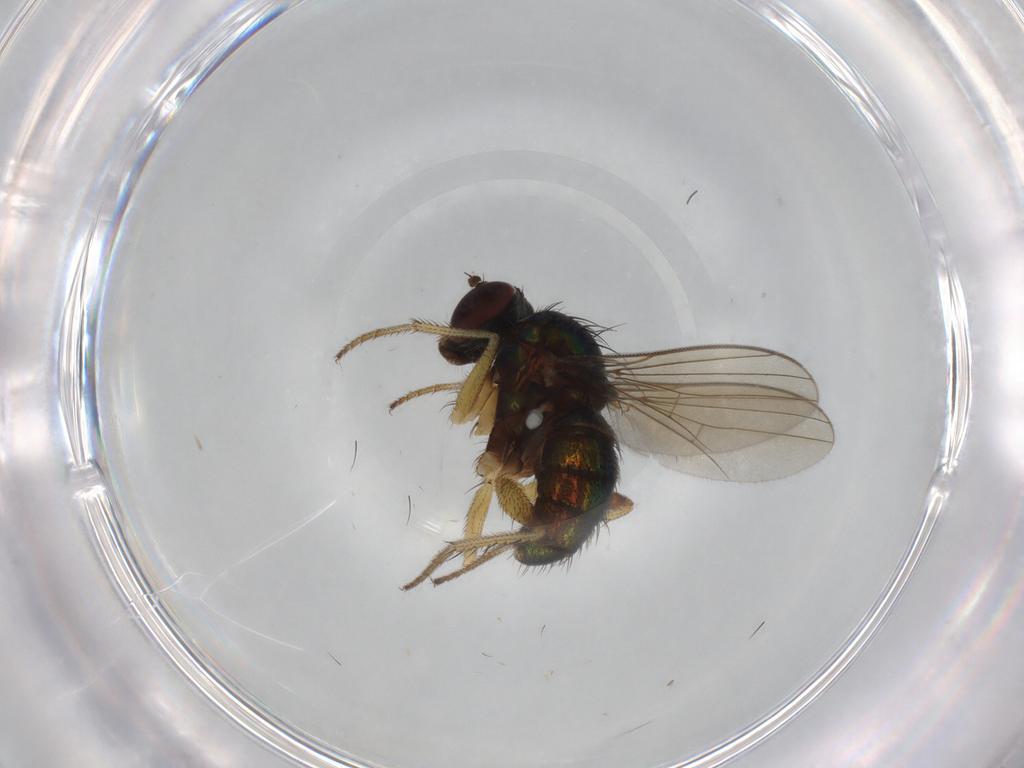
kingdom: Animalia
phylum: Arthropoda
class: Insecta
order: Diptera
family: Dolichopodidae
